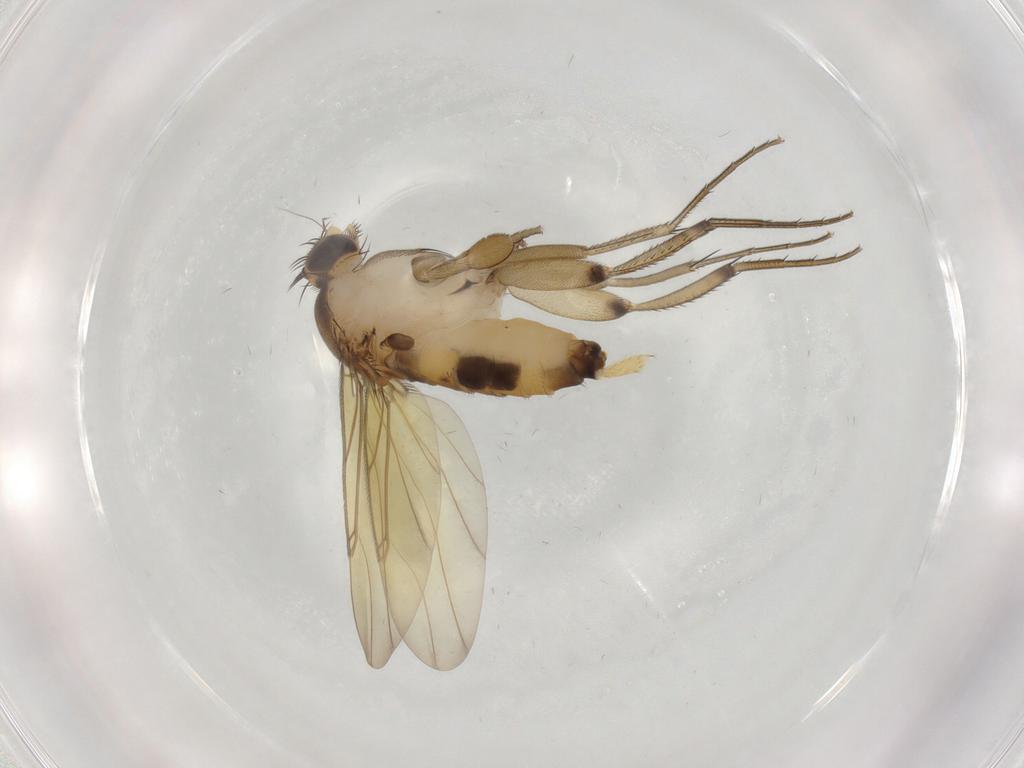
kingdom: Animalia
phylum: Arthropoda
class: Insecta
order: Diptera
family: Phoridae
